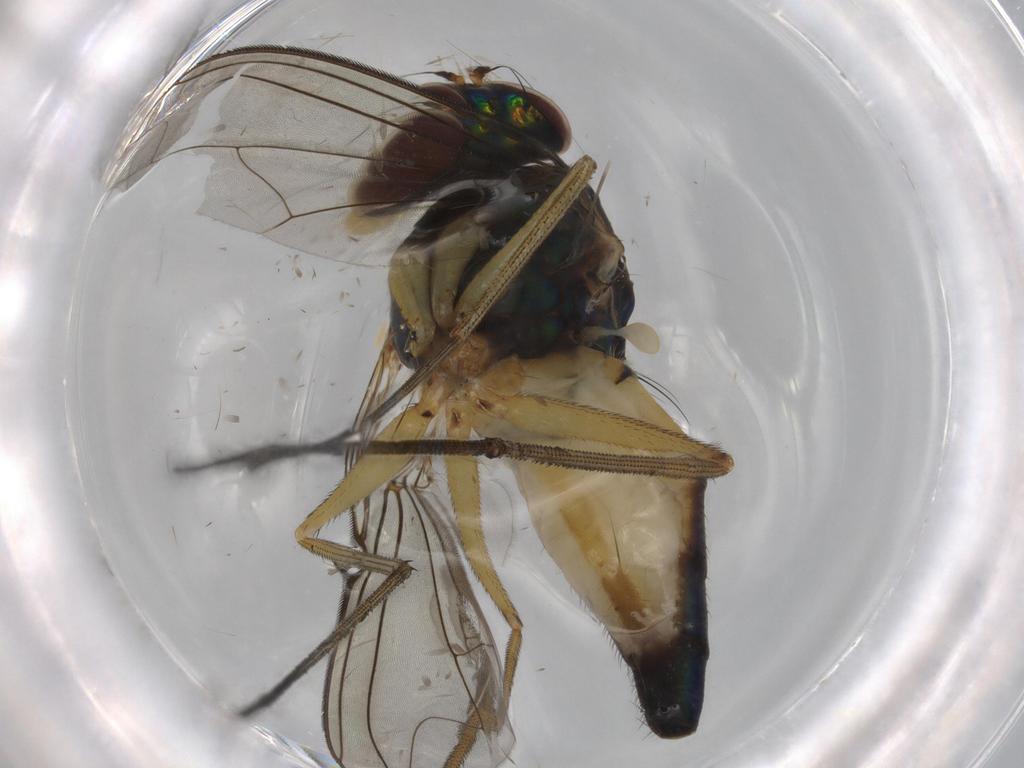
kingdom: Animalia
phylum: Arthropoda
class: Insecta
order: Diptera
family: Dolichopodidae
